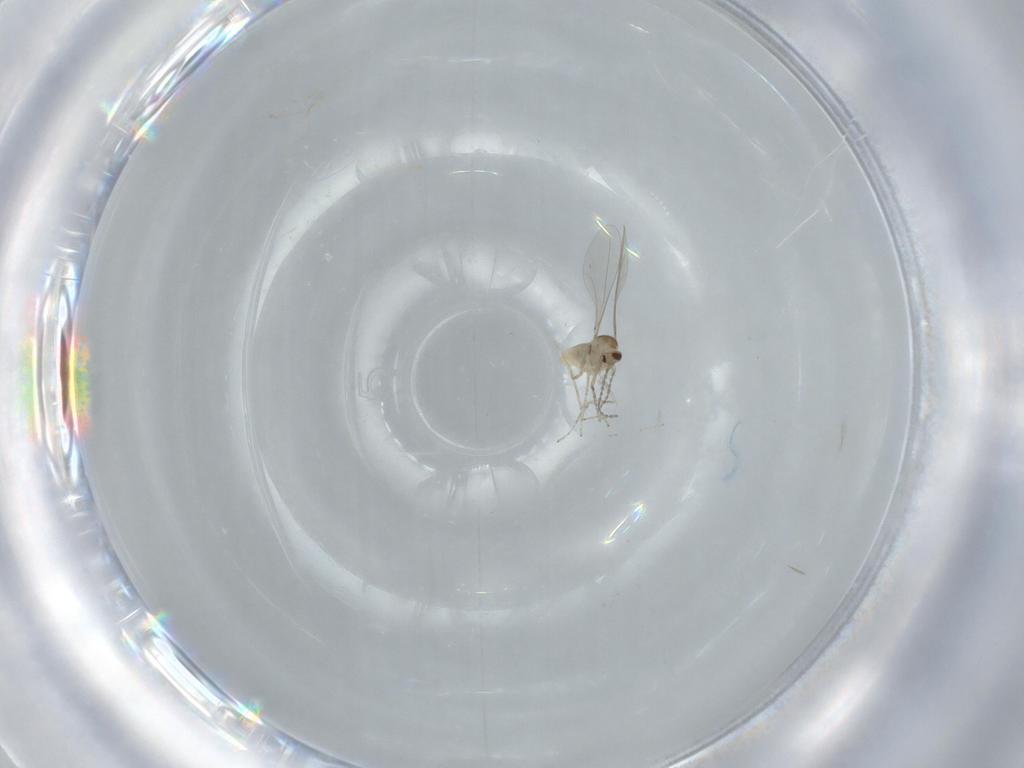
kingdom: Animalia
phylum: Arthropoda
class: Insecta
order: Diptera
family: Cecidomyiidae
